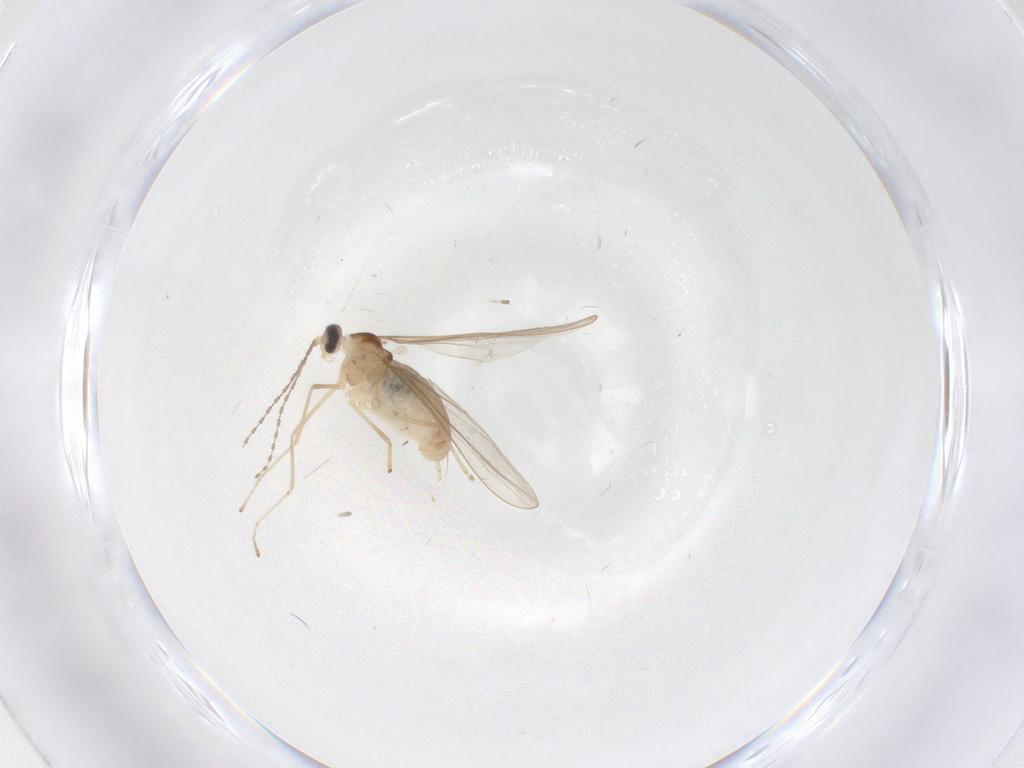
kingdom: Animalia
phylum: Arthropoda
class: Insecta
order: Diptera
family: Cecidomyiidae
